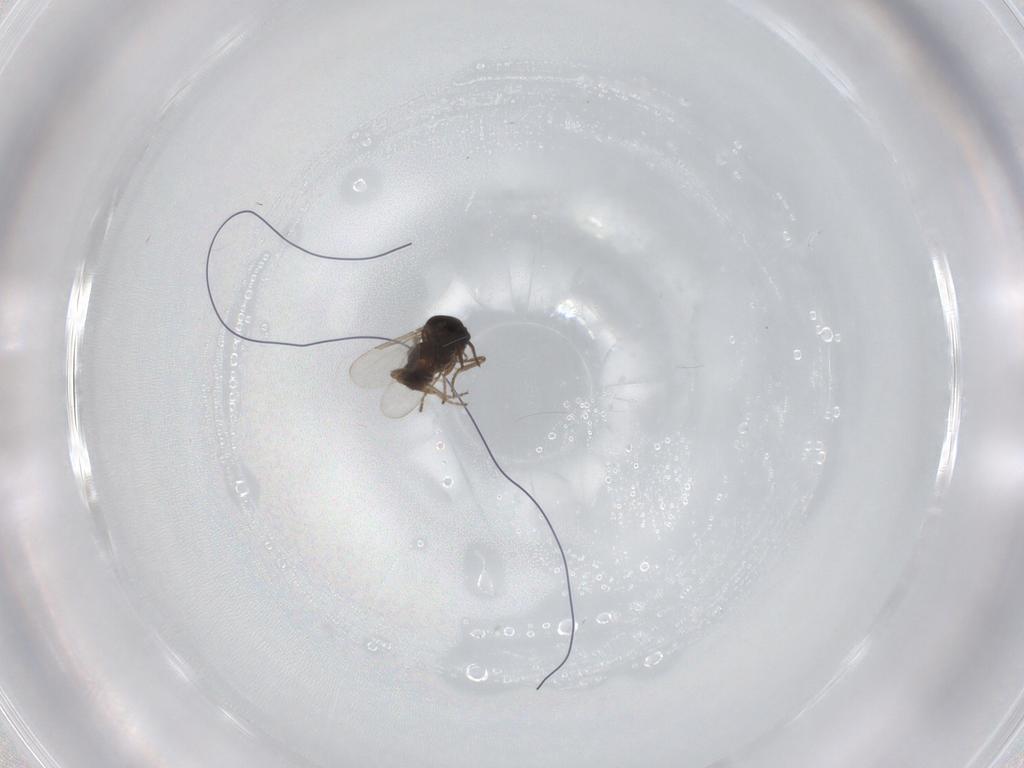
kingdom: Animalia
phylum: Arthropoda
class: Insecta
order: Diptera
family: Ceratopogonidae
